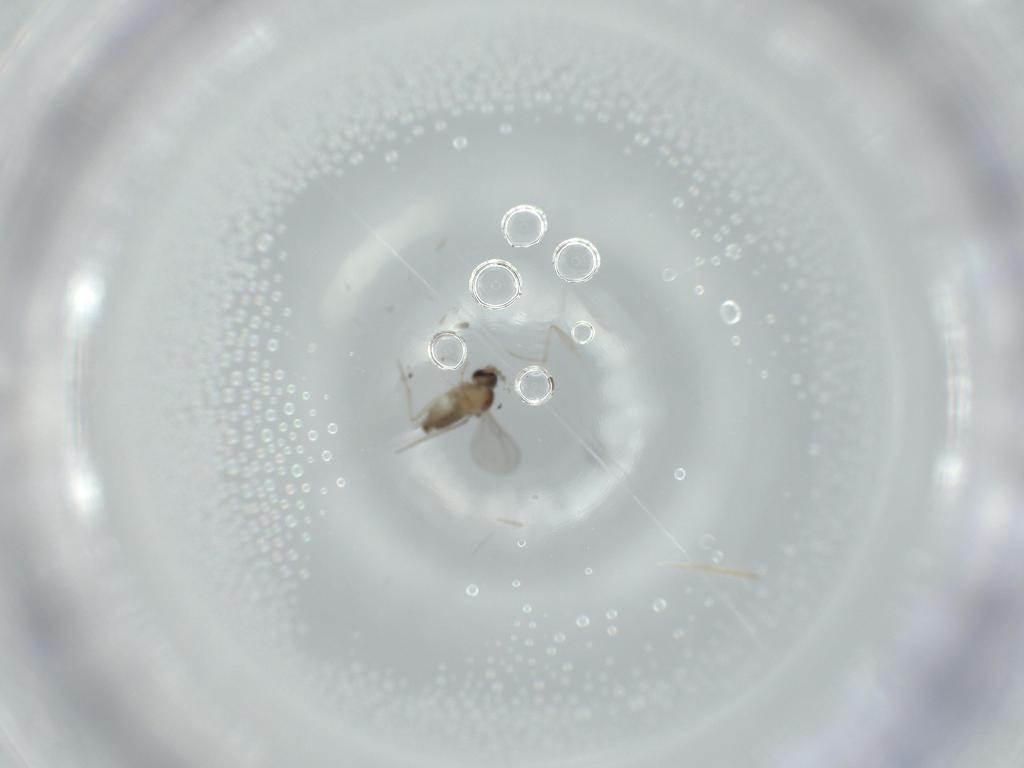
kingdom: Animalia
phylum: Arthropoda
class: Insecta
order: Diptera
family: Cecidomyiidae
